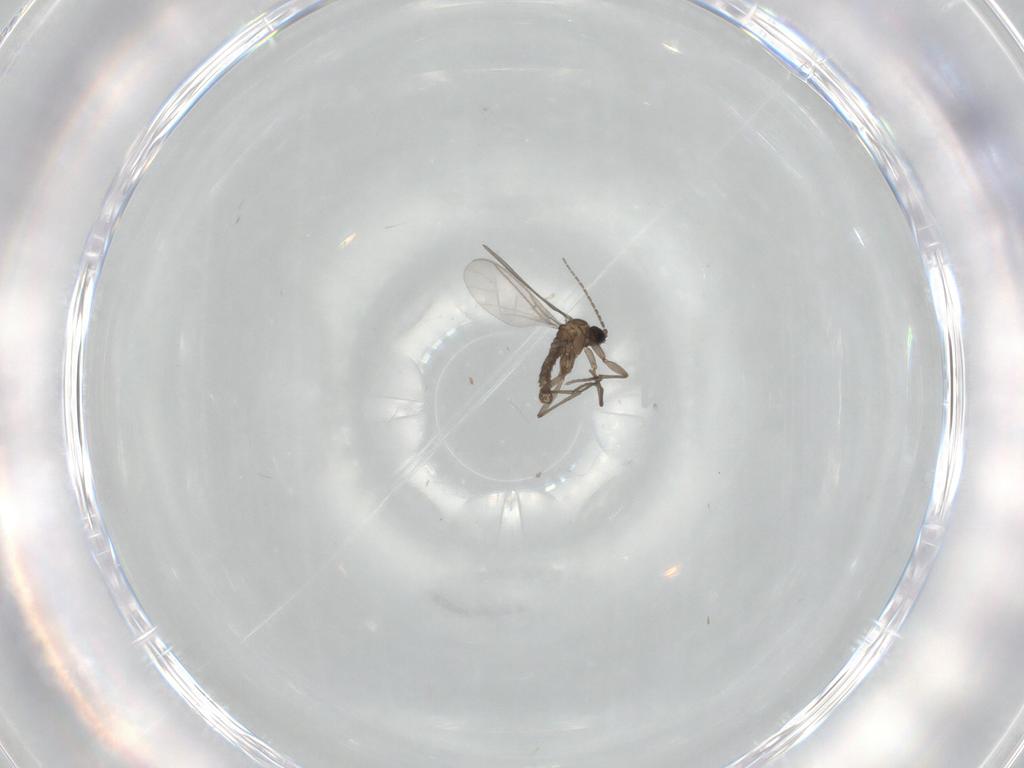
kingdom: Animalia
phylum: Arthropoda
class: Insecta
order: Diptera
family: Sciaridae
